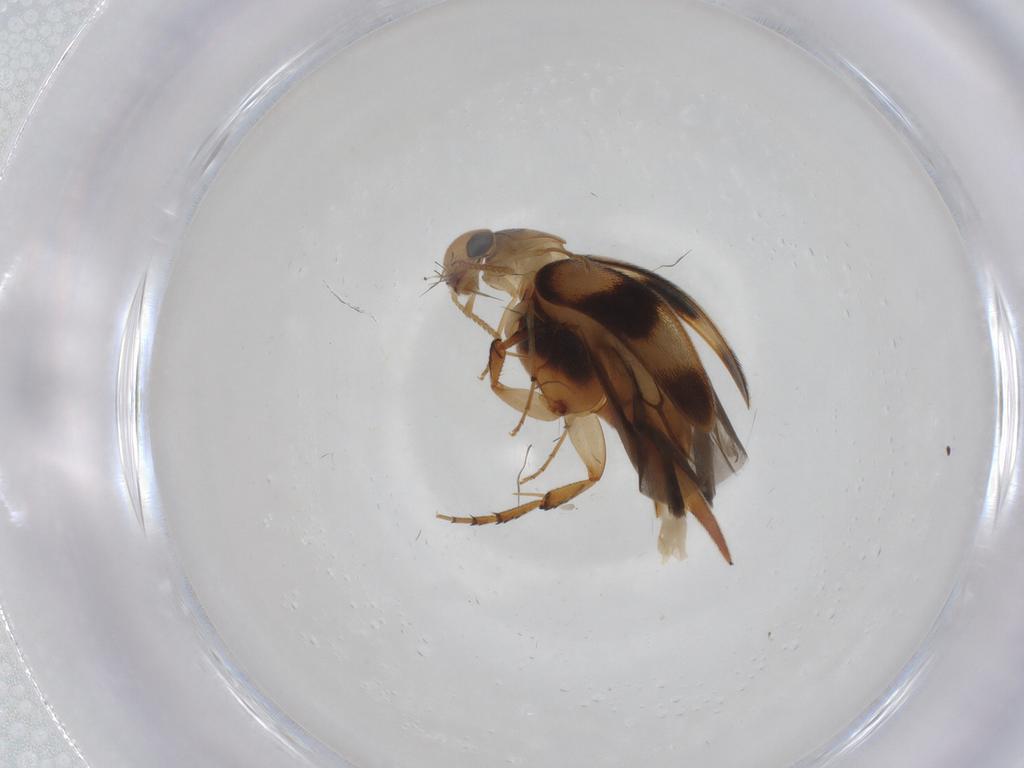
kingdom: Animalia
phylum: Arthropoda
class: Insecta
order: Coleoptera
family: Mordellidae
